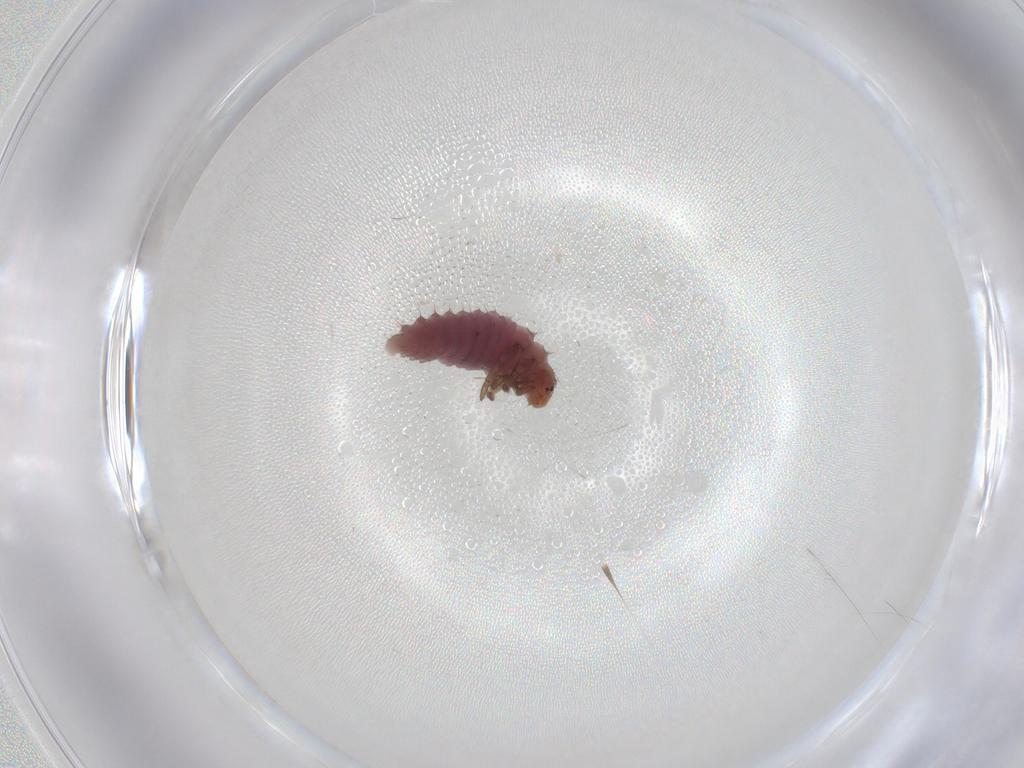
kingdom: Animalia
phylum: Arthropoda
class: Insecta
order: Coleoptera
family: Coccinellidae
